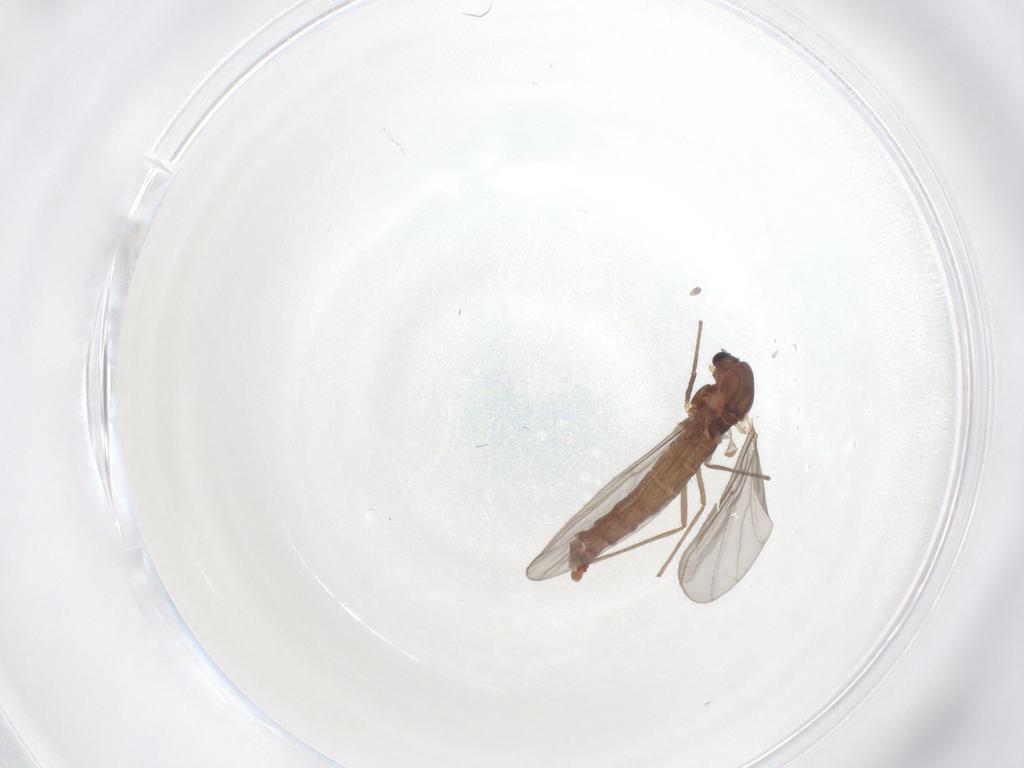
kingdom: Animalia
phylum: Arthropoda
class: Insecta
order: Diptera
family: Chironomidae
